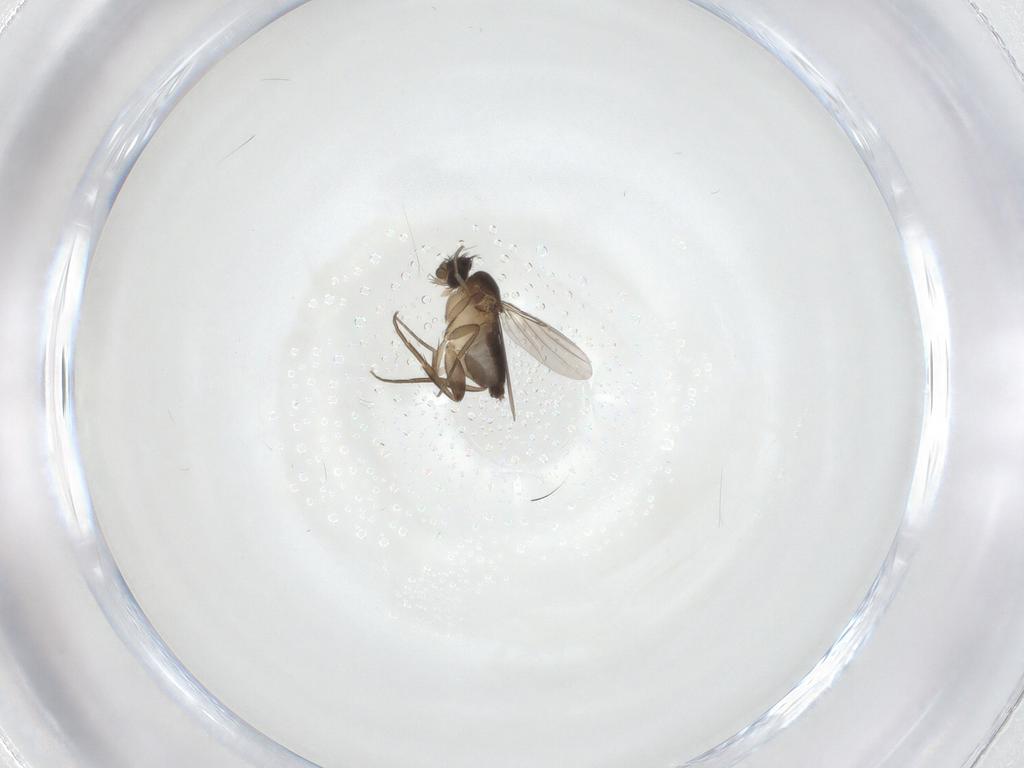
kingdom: Animalia
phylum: Arthropoda
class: Insecta
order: Diptera
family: Phoridae
